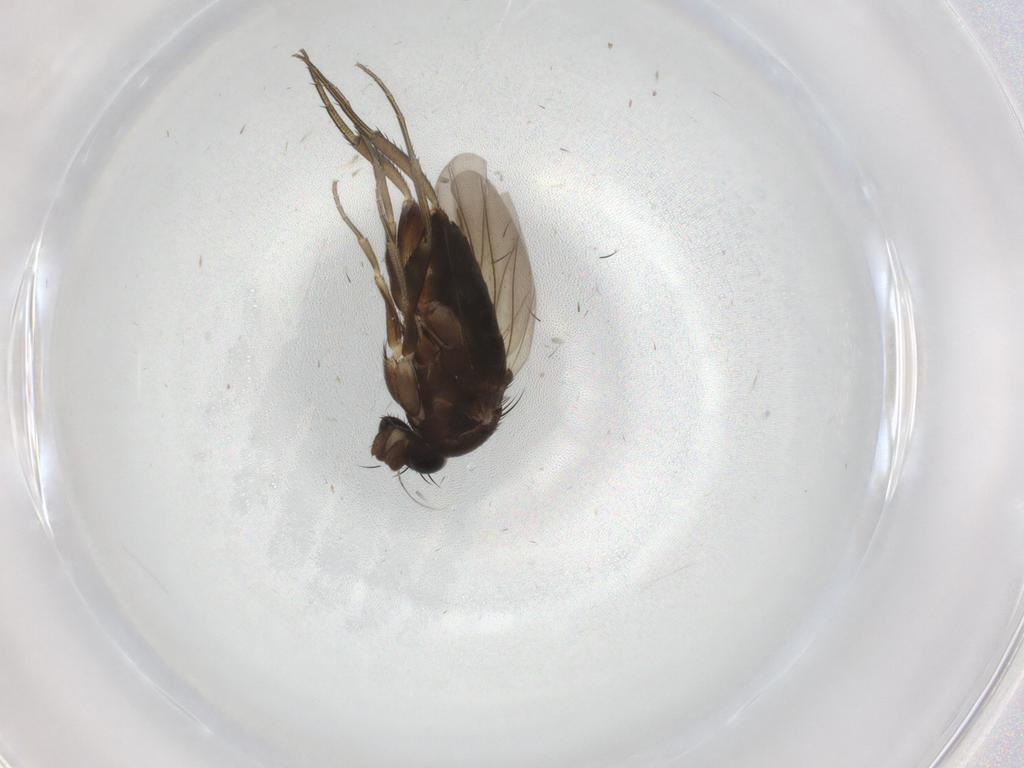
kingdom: Animalia
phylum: Arthropoda
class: Insecta
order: Diptera
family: Phoridae
